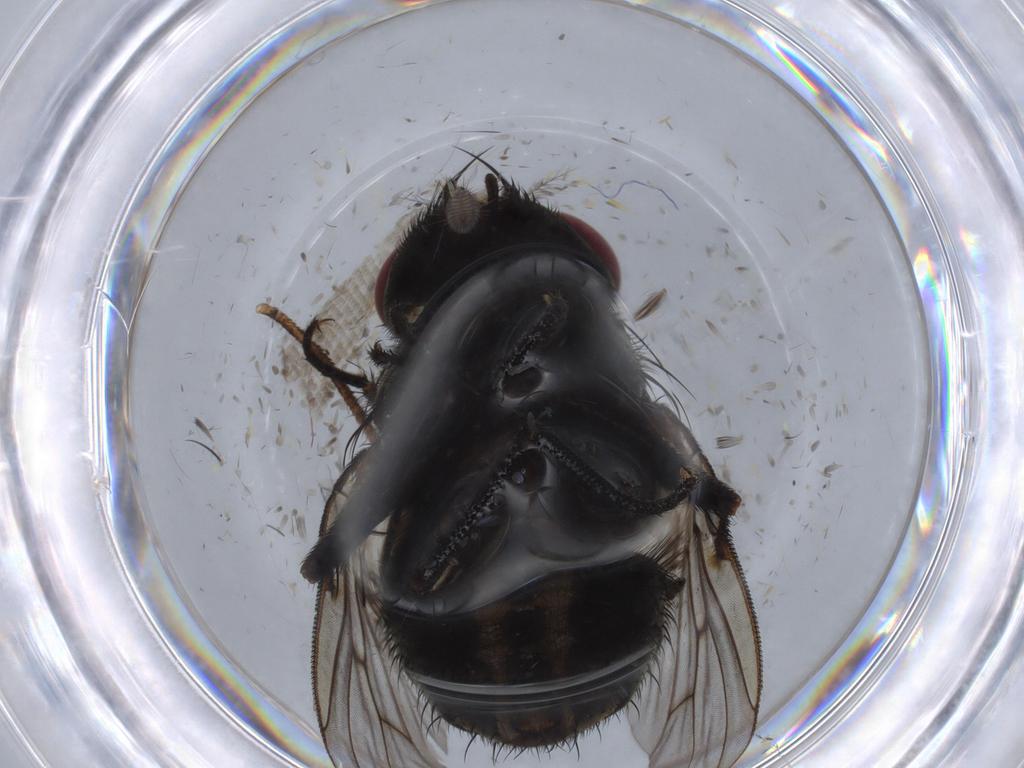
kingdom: Animalia
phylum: Arthropoda
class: Insecta
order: Diptera
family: Muscidae
